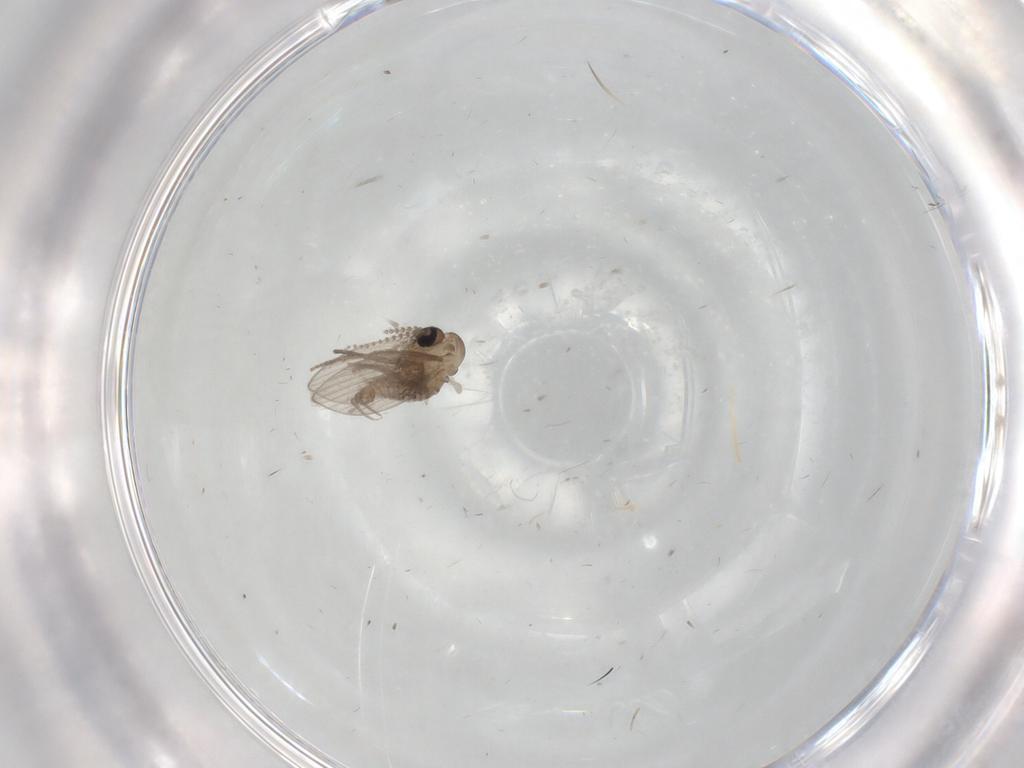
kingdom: Animalia
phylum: Arthropoda
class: Insecta
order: Diptera
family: Psychodidae
